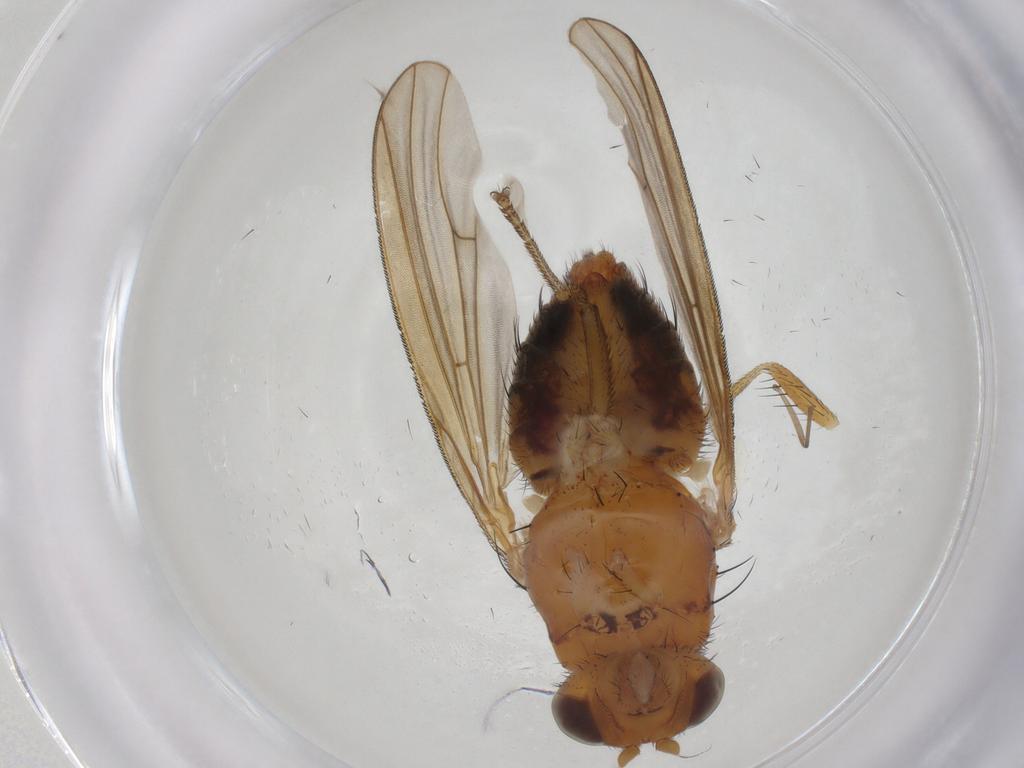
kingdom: Animalia
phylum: Arthropoda
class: Insecta
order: Diptera
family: Cecidomyiidae
